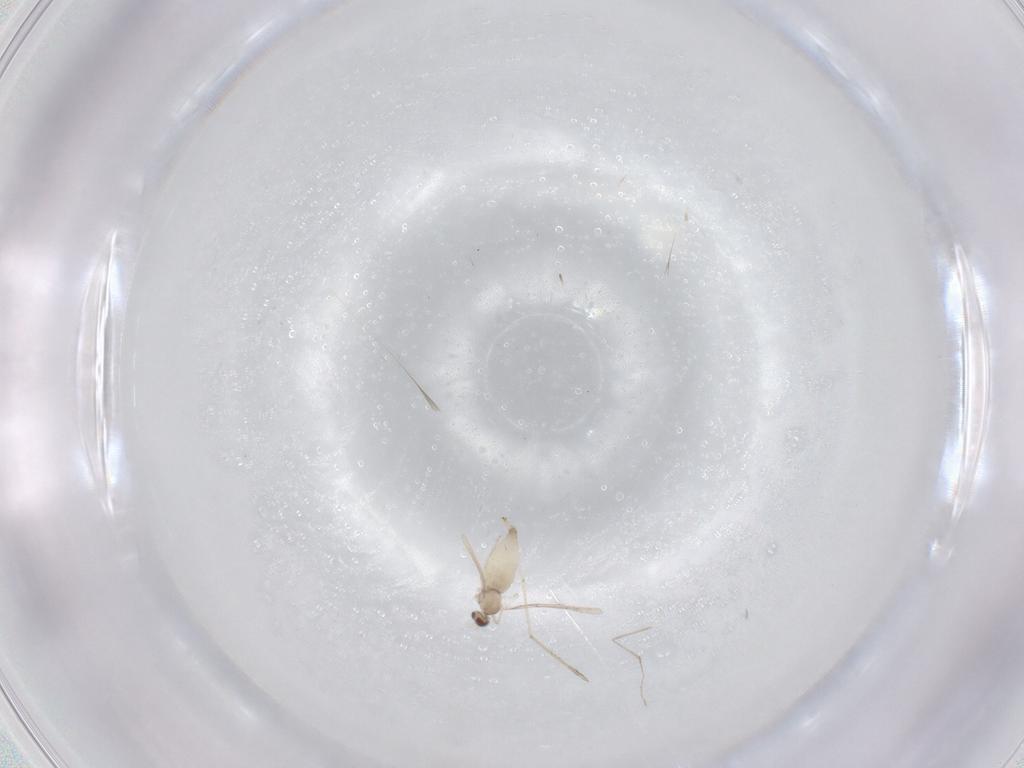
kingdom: Animalia
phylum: Arthropoda
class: Insecta
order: Diptera
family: Cecidomyiidae
